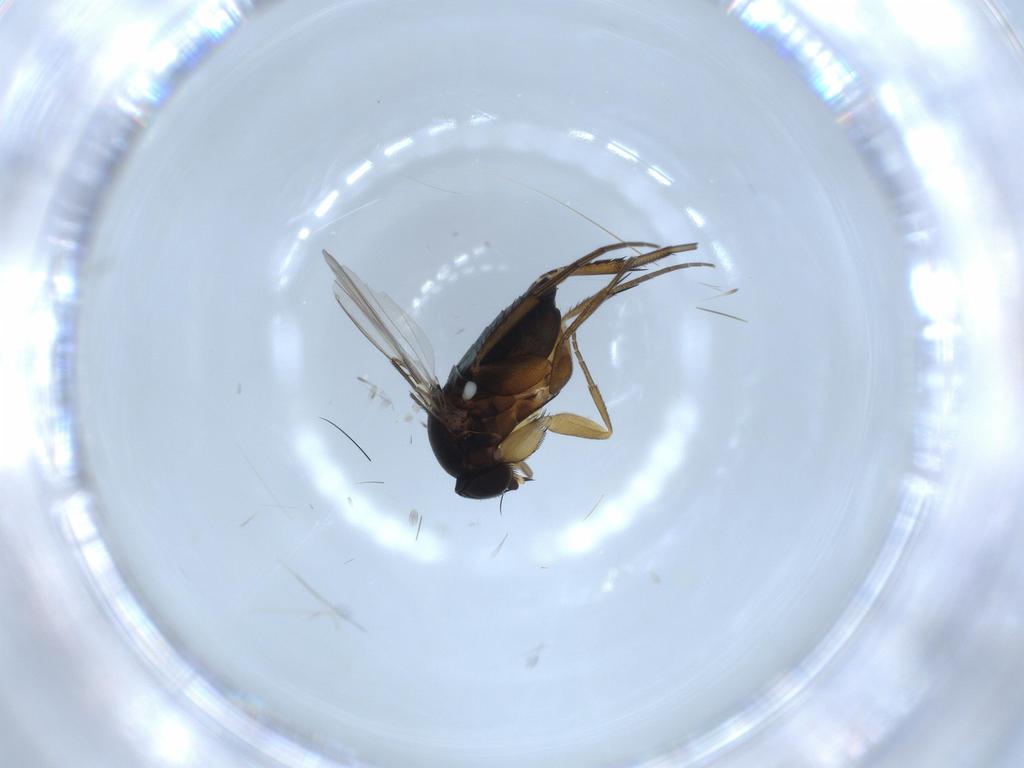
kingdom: Animalia
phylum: Arthropoda
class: Insecta
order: Diptera
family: Phoridae
